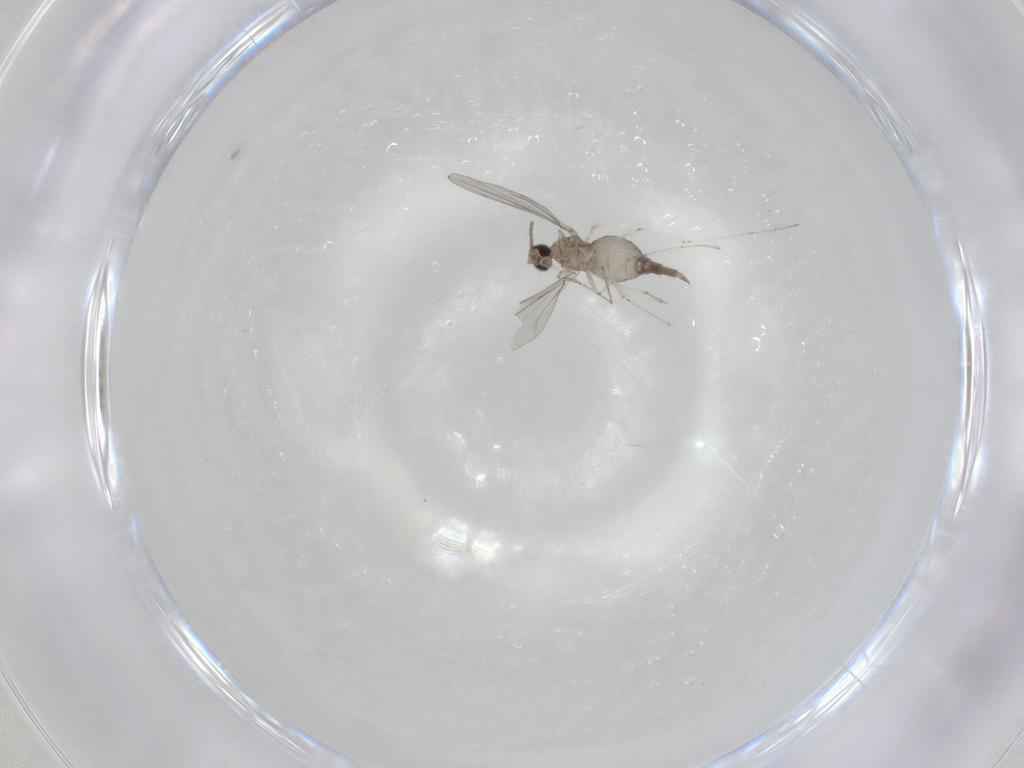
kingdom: Animalia
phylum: Arthropoda
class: Insecta
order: Diptera
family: Cecidomyiidae
